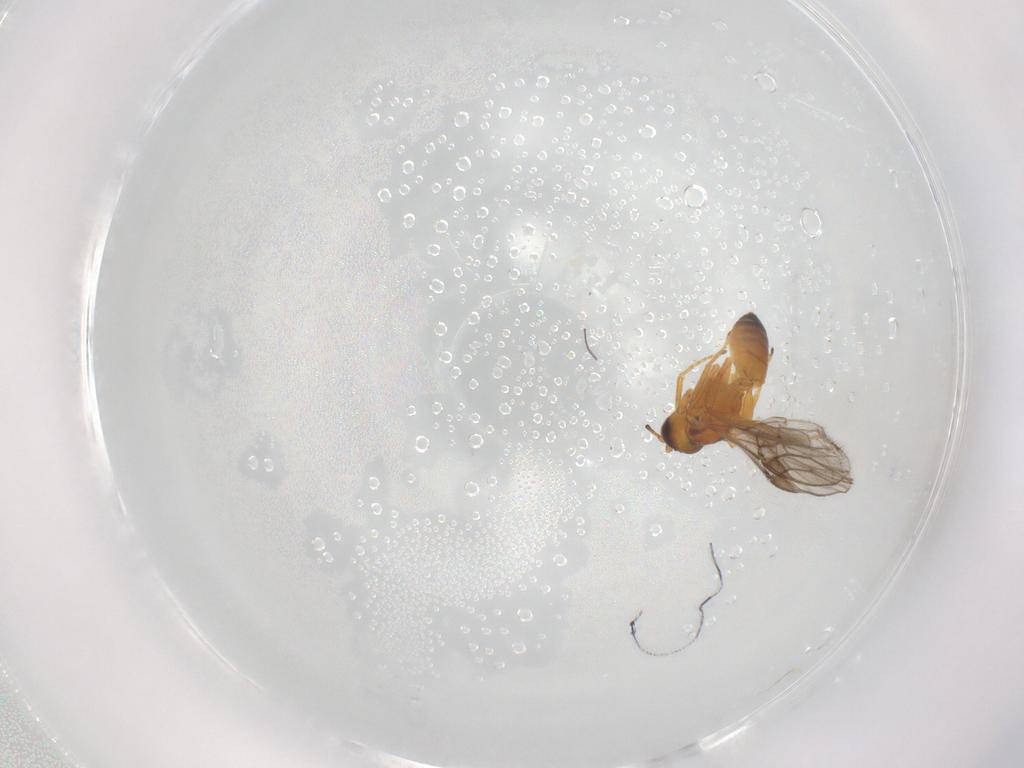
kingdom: Animalia
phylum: Arthropoda
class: Insecta
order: Hymenoptera
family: Braconidae
